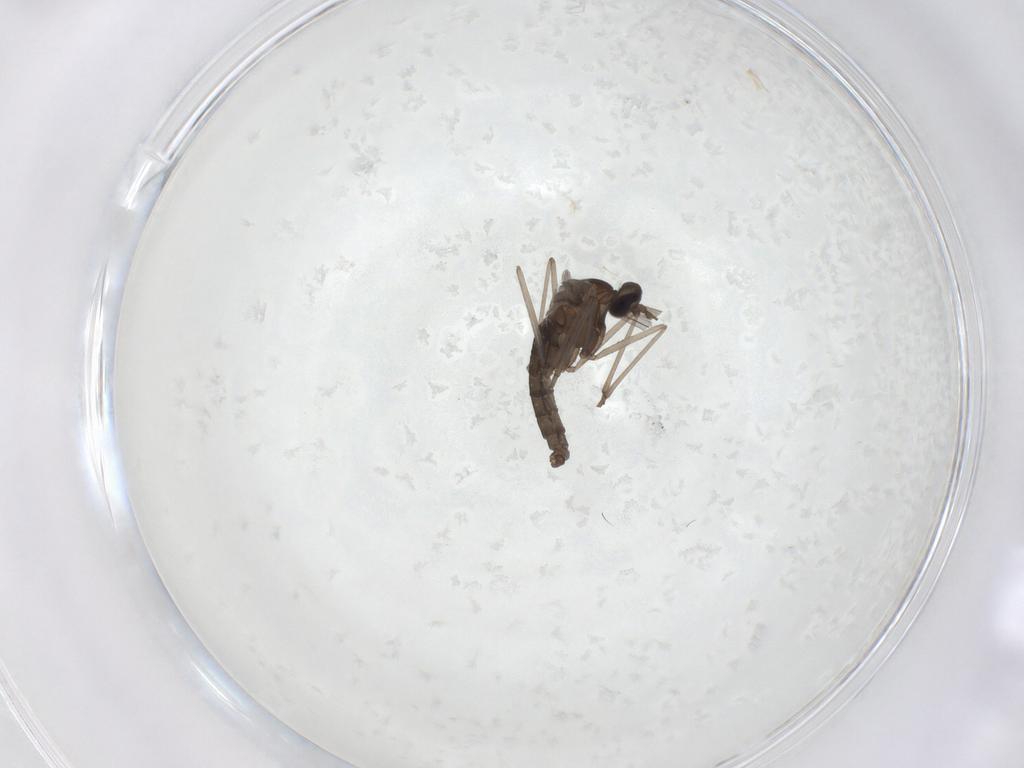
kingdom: Animalia
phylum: Arthropoda
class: Insecta
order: Diptera
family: Cecidomyiidae
